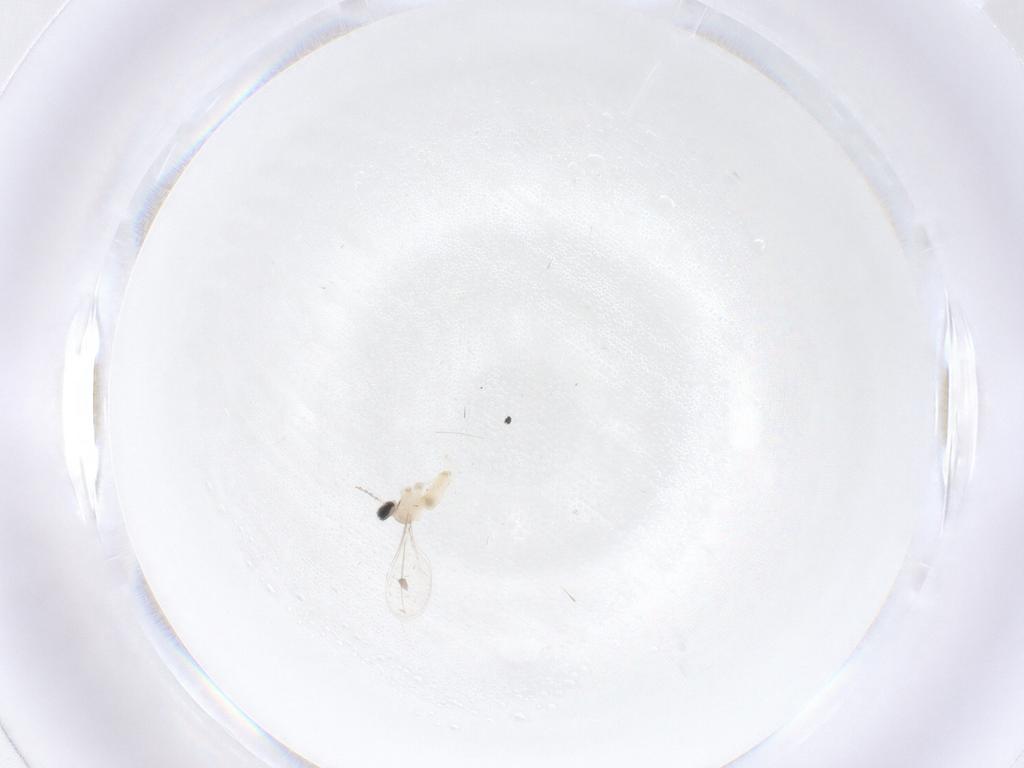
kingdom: Animalia
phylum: Arthropoda
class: Insecta
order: Diptera
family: Cecidomyiidae
